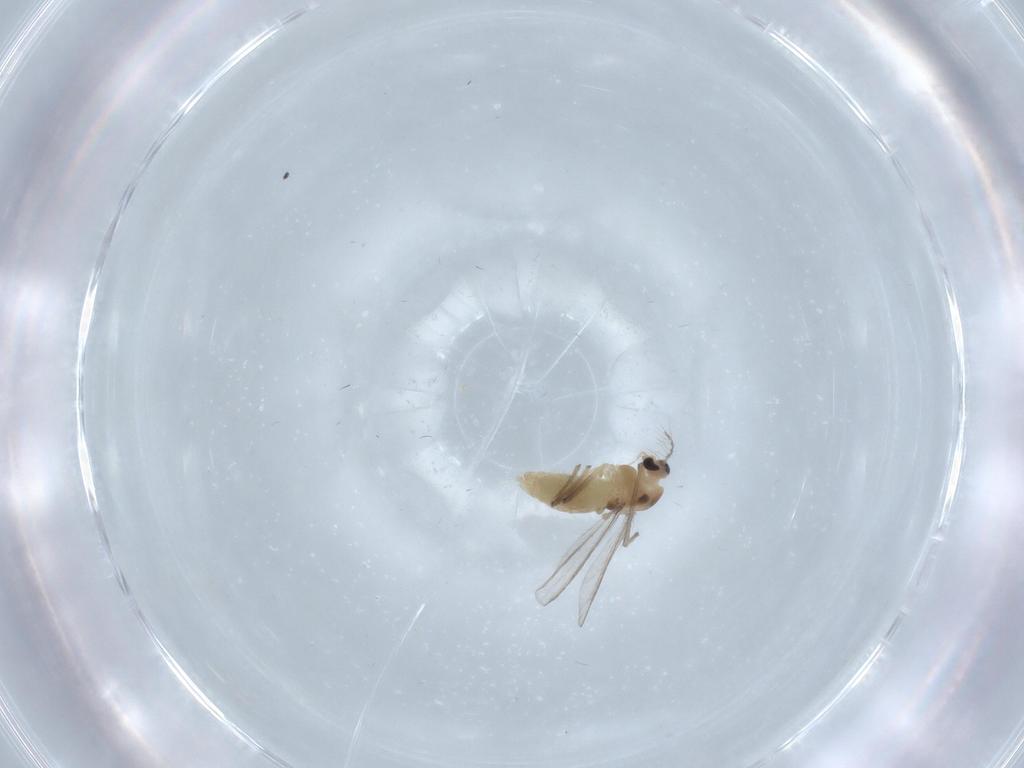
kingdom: Animalia
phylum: Arthropoda
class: Insecta
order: Diptera
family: Chironomidae
